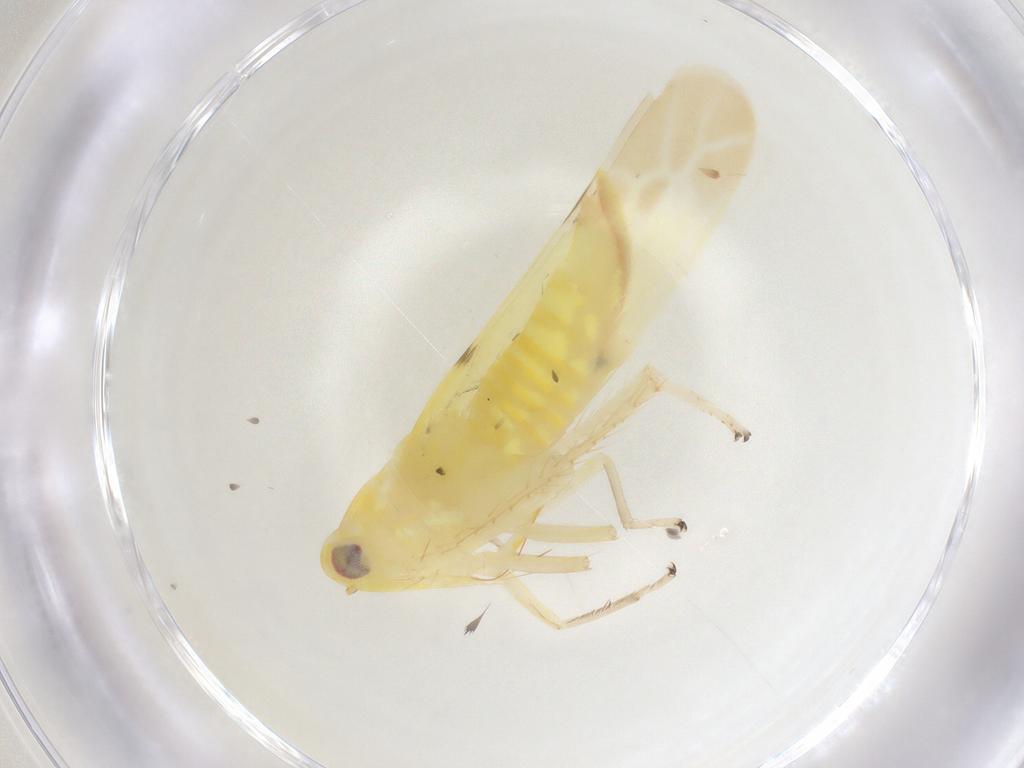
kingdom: Animalia
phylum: Arthropoda
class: Insecta
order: Hemiptera
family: Cicadellidae
